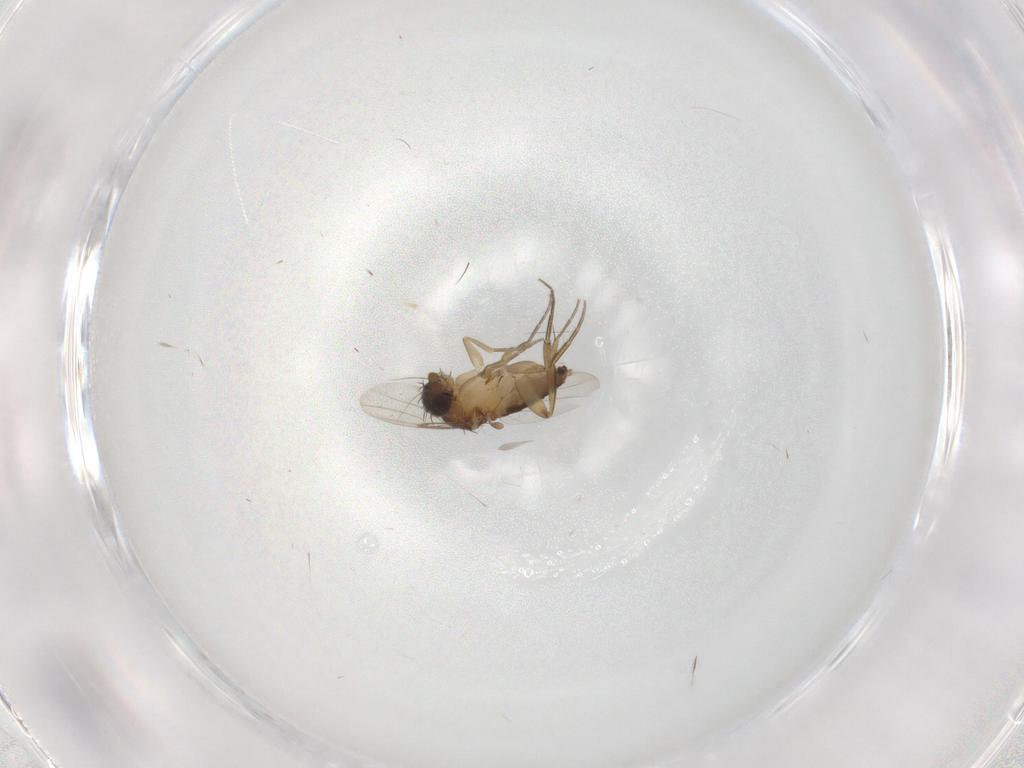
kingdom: Animalia
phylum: Arthropoda
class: Insecta
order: Diptera
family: Phoridae
